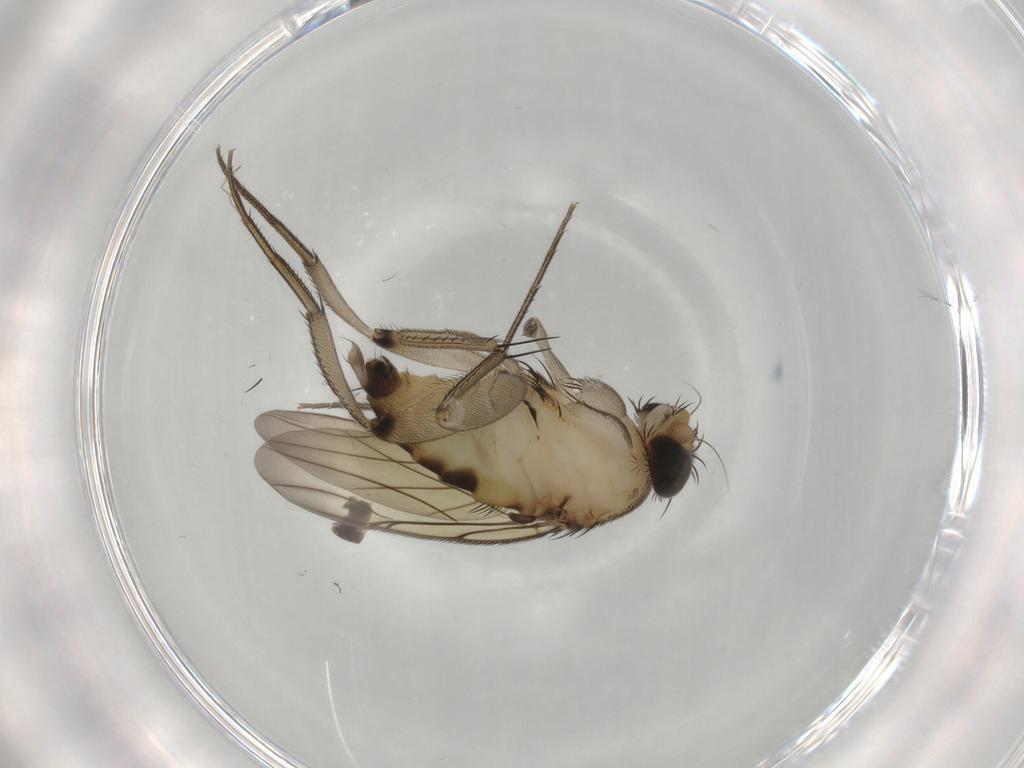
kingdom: Animalia
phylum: Arthropoda
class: Insecta
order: Diptera
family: Phoridae
